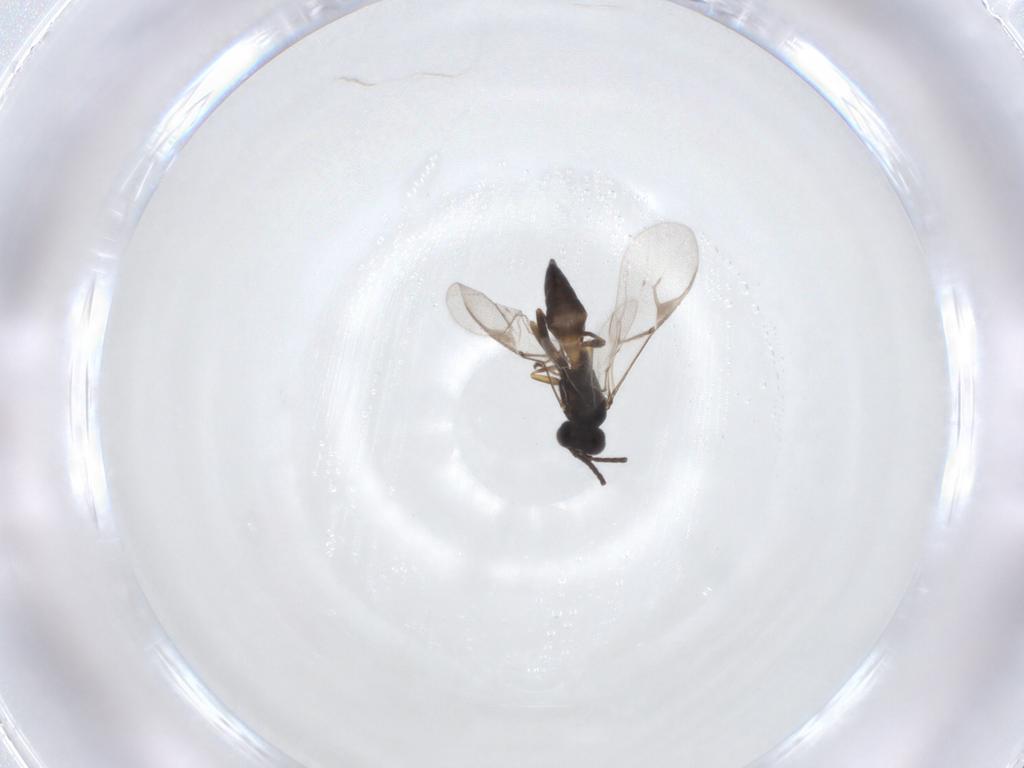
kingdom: Animalia
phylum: Arthropoda
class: Insecta
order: Hymenoptera
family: Braconidae
